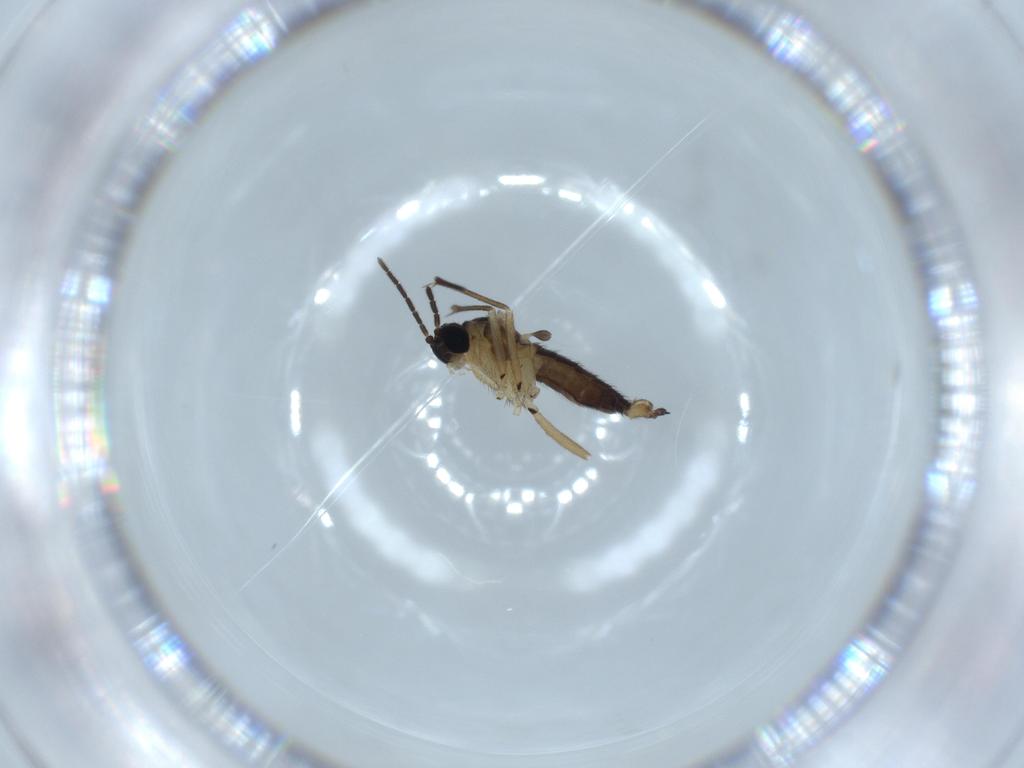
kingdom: Animalia
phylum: Arthropoda
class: Insecta
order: Diptera
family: Sciaridae
